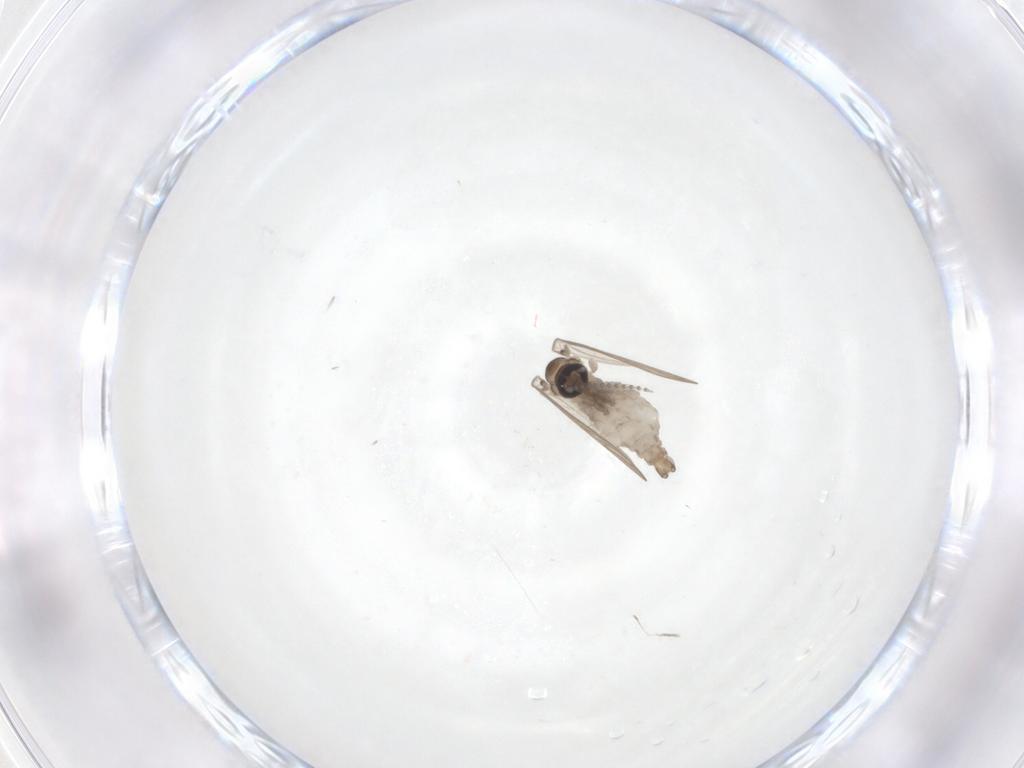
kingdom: Animalia
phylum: Arthropoda
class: Insecta
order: Diptera
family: Psychodidae
